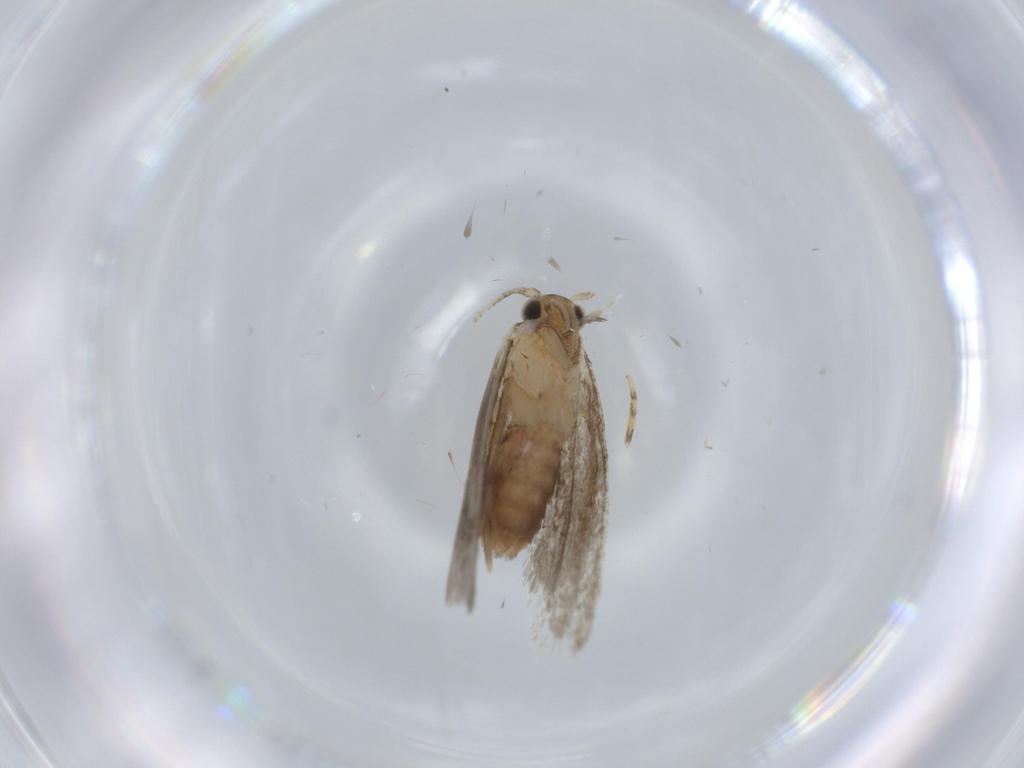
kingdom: Animalia
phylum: Arthropoda
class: Insecta
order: Lepidoptera
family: Tineidae
